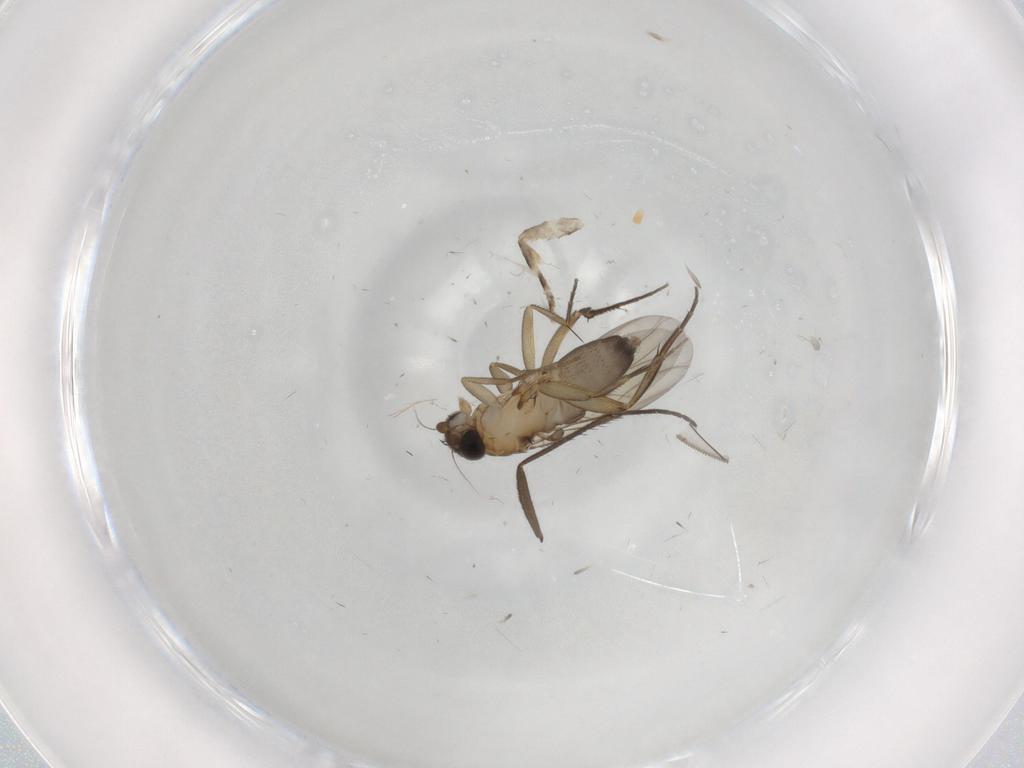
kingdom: Animalia
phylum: Arthropoda
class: Insecta
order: Diptera
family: Phoridae
